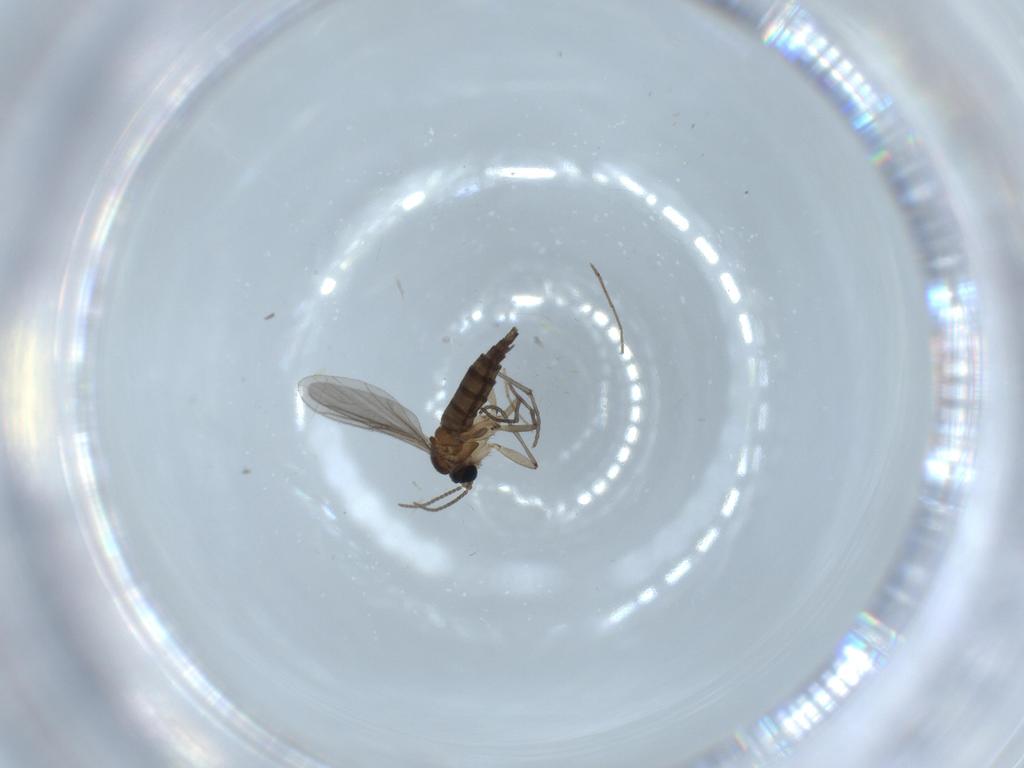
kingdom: Animalia
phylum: Arthropoda
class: Insecta
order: Diptera
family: Sciaridae
